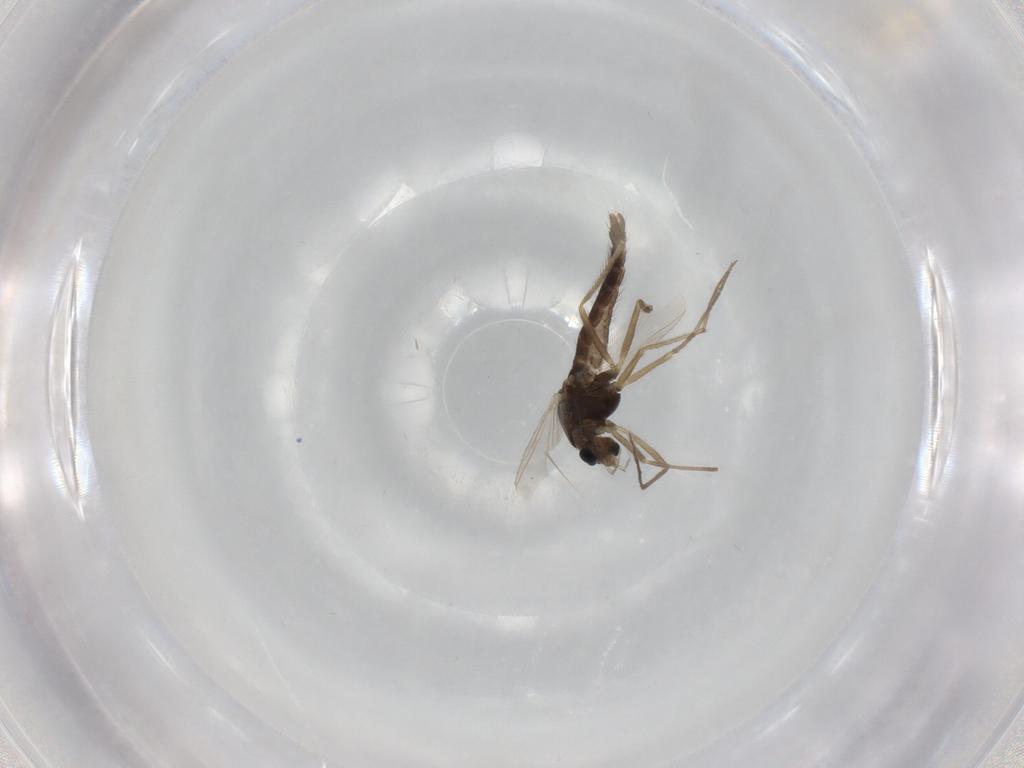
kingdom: Animalia
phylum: Arthropoda
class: Insecta
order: Diptera
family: Chironomidae
